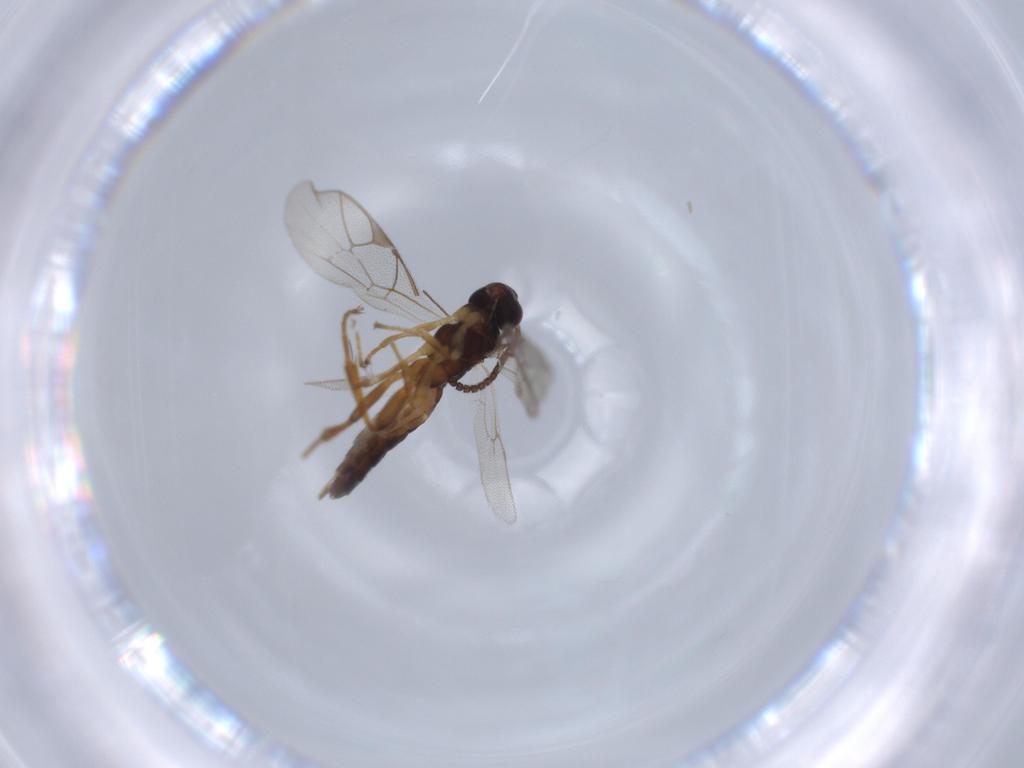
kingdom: Animalia
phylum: Arthropoda
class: Insecta
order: Hymenoptera
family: Ichneumonidae
